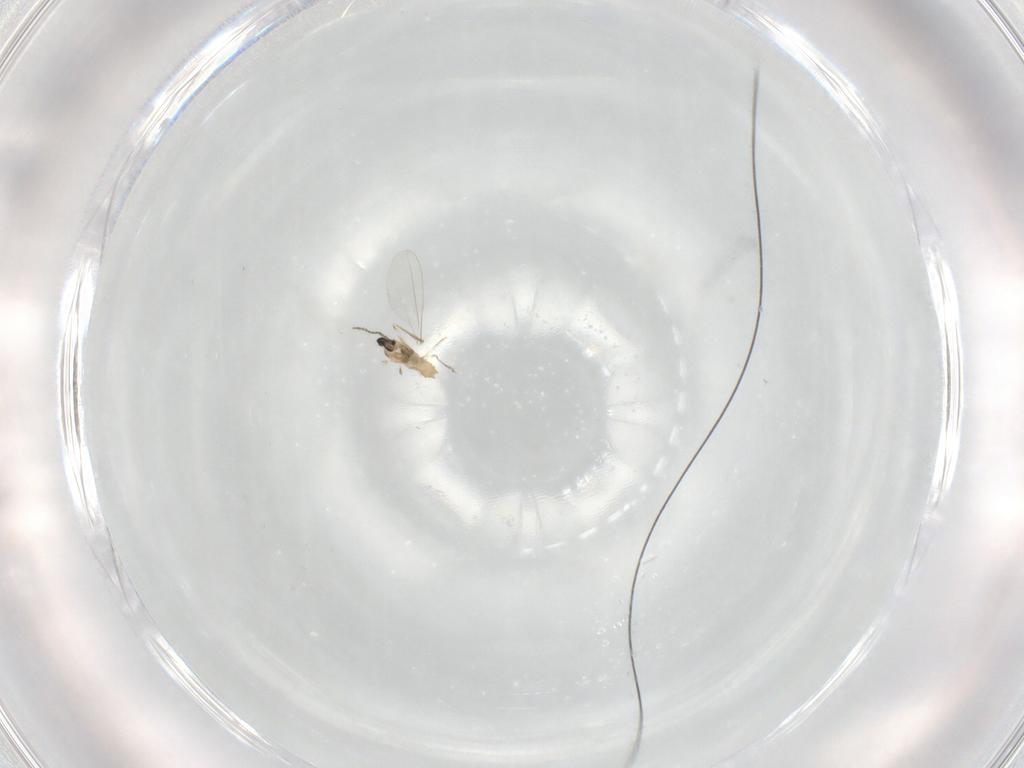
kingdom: Animalia
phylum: Arthropoda
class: Insecta
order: Diptera
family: Cecidomyiidae
